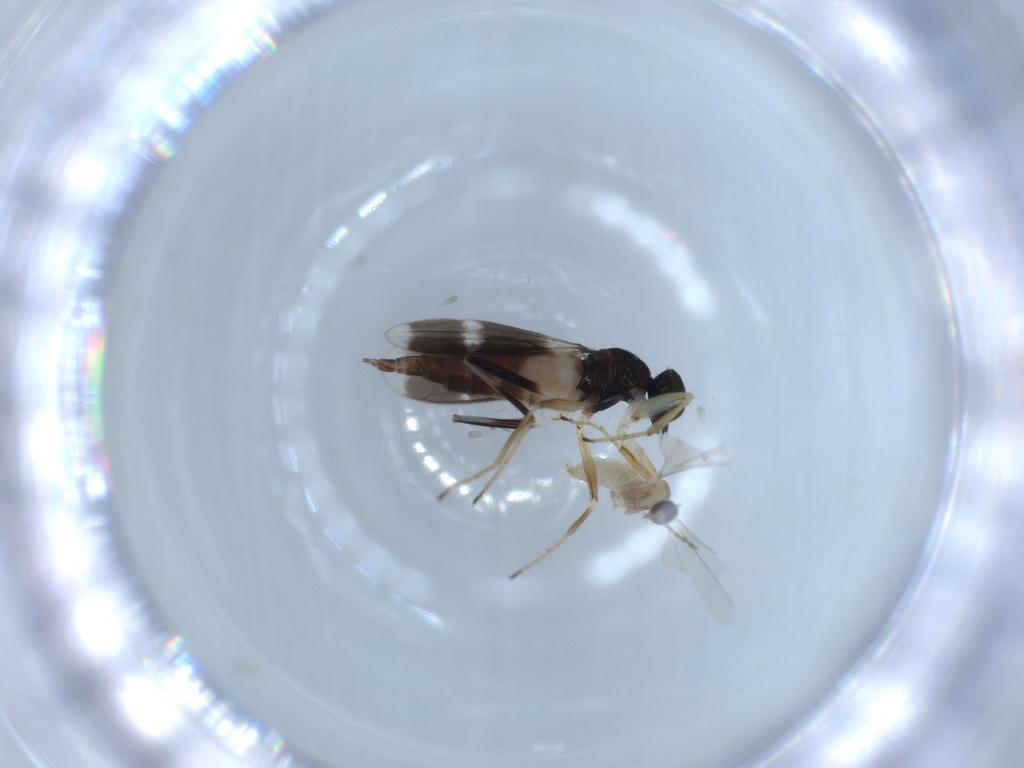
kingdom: Animalia
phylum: Arthropoda
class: Insecta
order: Diptera
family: Hybotidae
